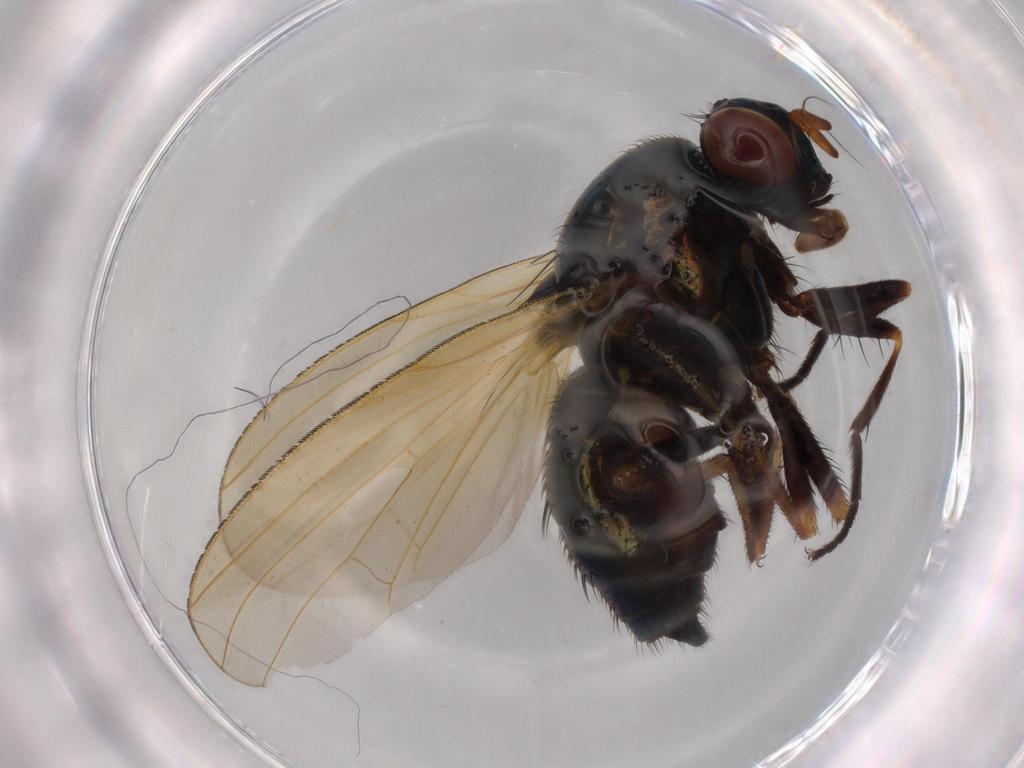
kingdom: Animalia
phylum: Arthropoda
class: Insecta
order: Diptera
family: Lauxaniidae
